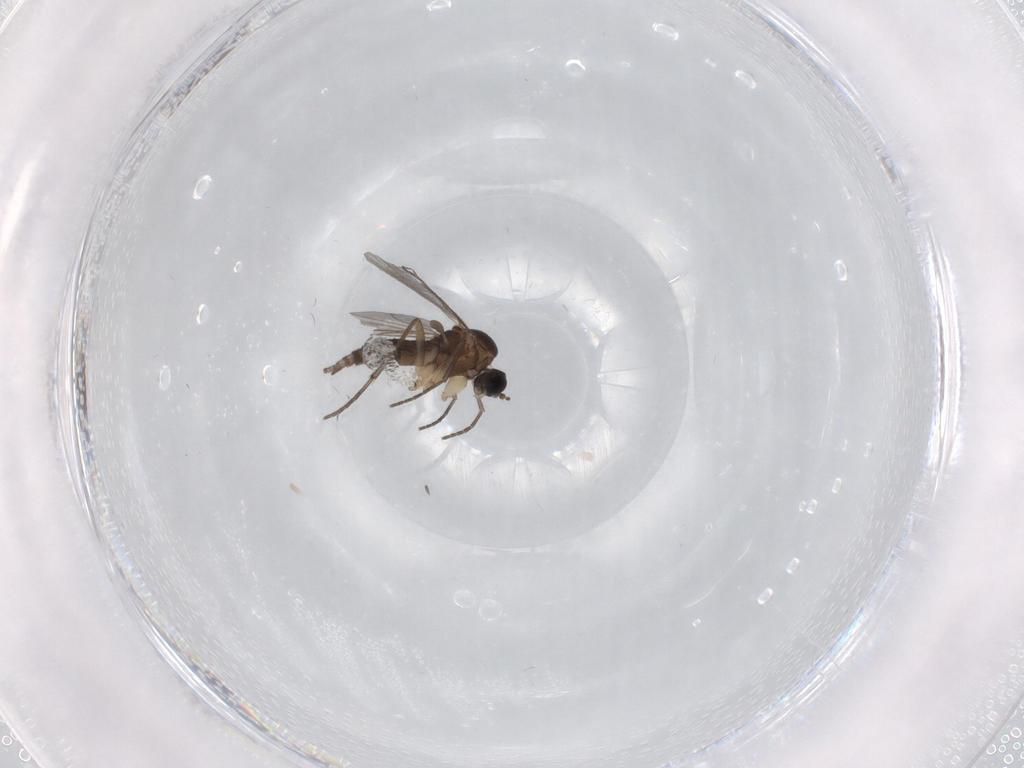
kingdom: Animalia
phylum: Arthropoda
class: Insecta
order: Diptera
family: Sciaridae
